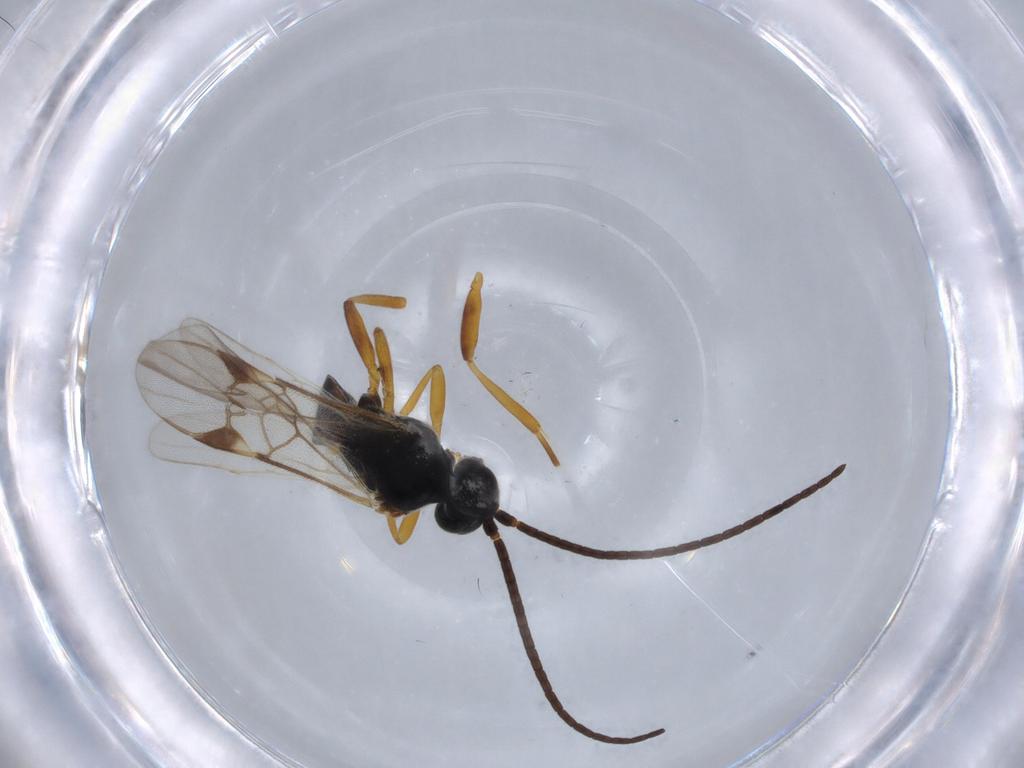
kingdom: Animalia
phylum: Arthropoda
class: Insecta
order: Hymenoptera
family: Braconidae
